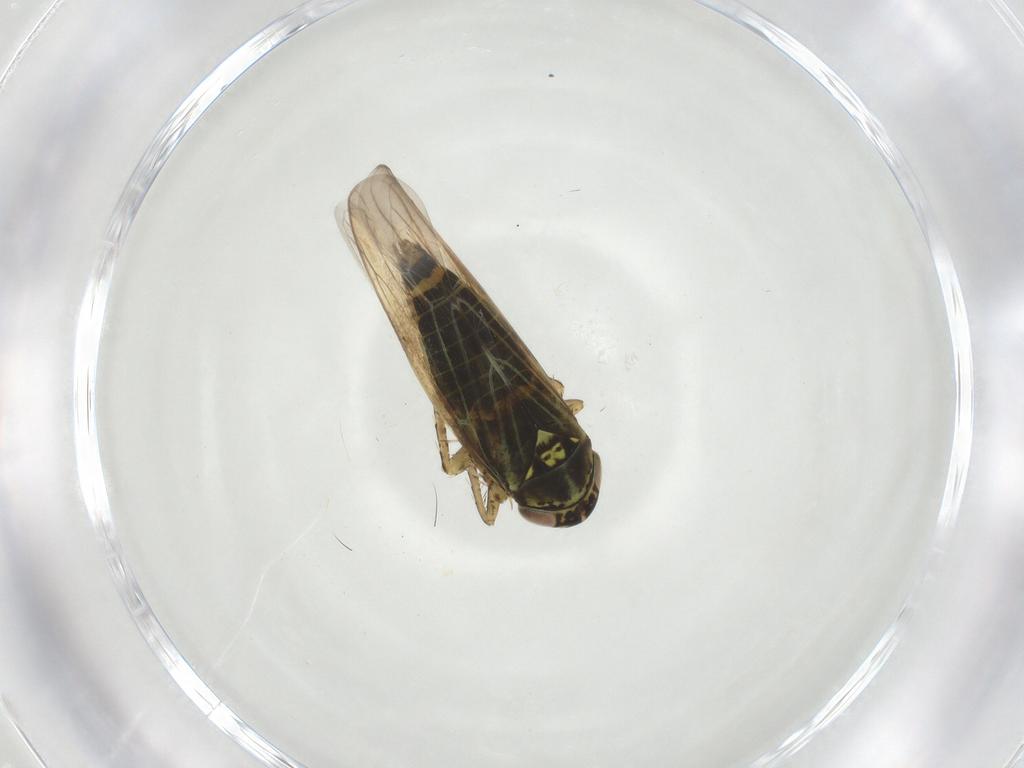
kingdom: Animalia
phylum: Arthropoda
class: Insecta
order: Hemiptera
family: Cicadellidae
